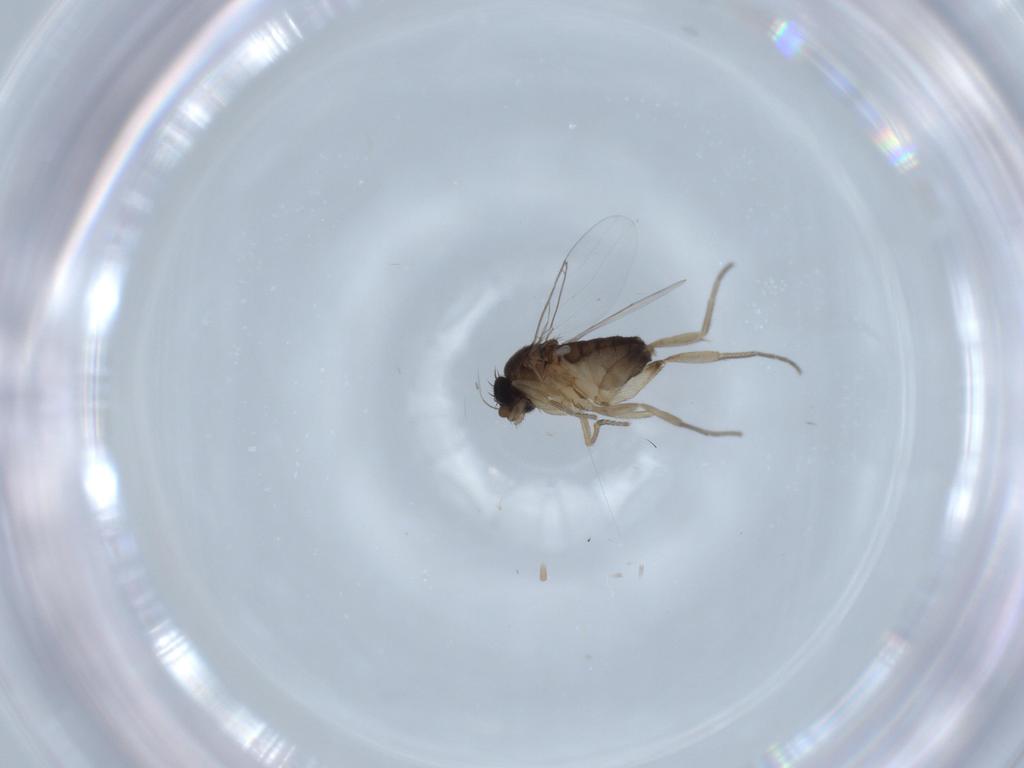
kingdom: Animalia
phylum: Arthropoda
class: Insecta
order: Diptera
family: Phoridae
